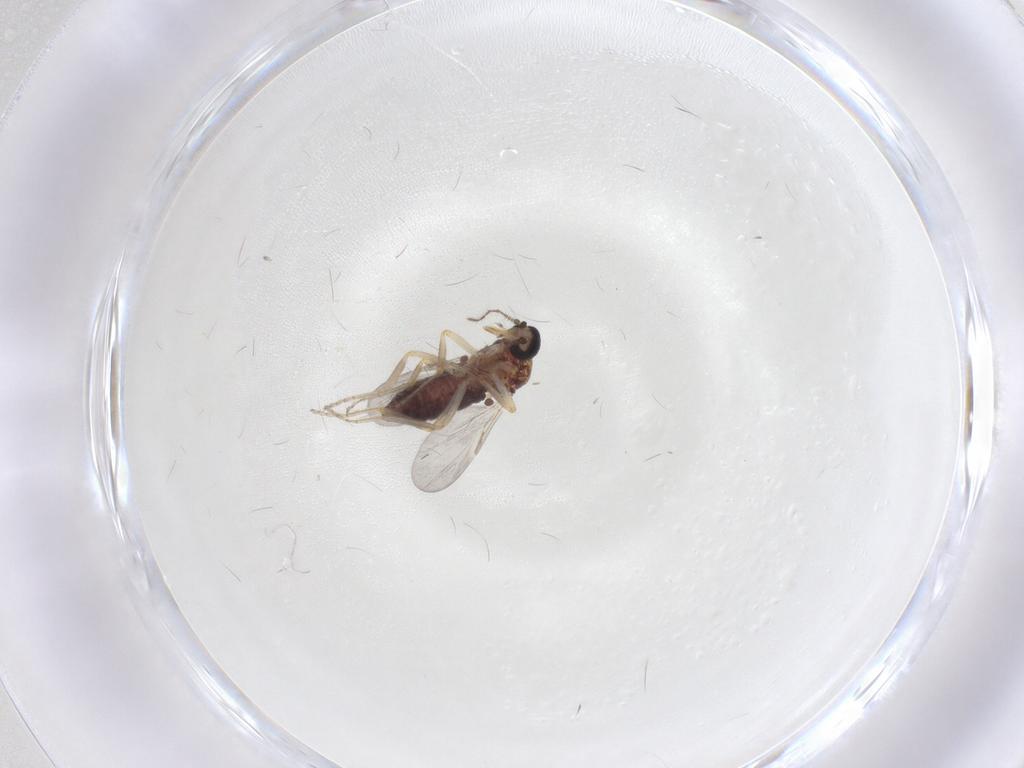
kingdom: Animalia
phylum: Arthropoda
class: Insecta
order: Diptera
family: Ceratopogonidae
